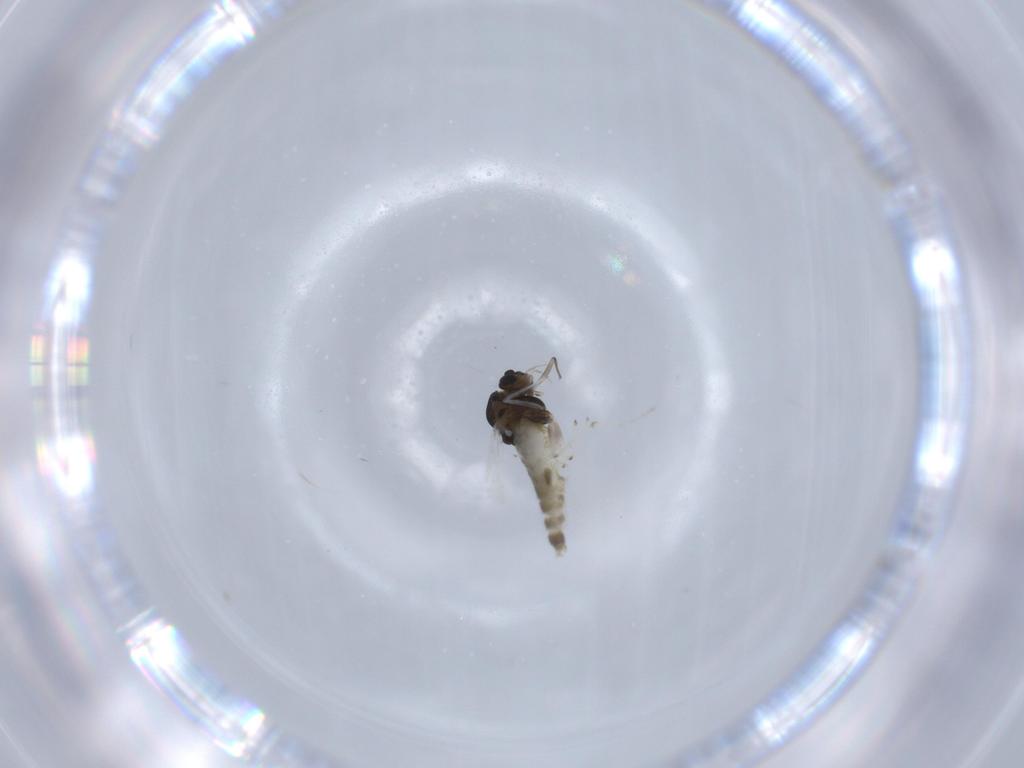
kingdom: Animalia
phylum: Arthropoda
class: Insecta
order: Diptera
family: Chironomidae
